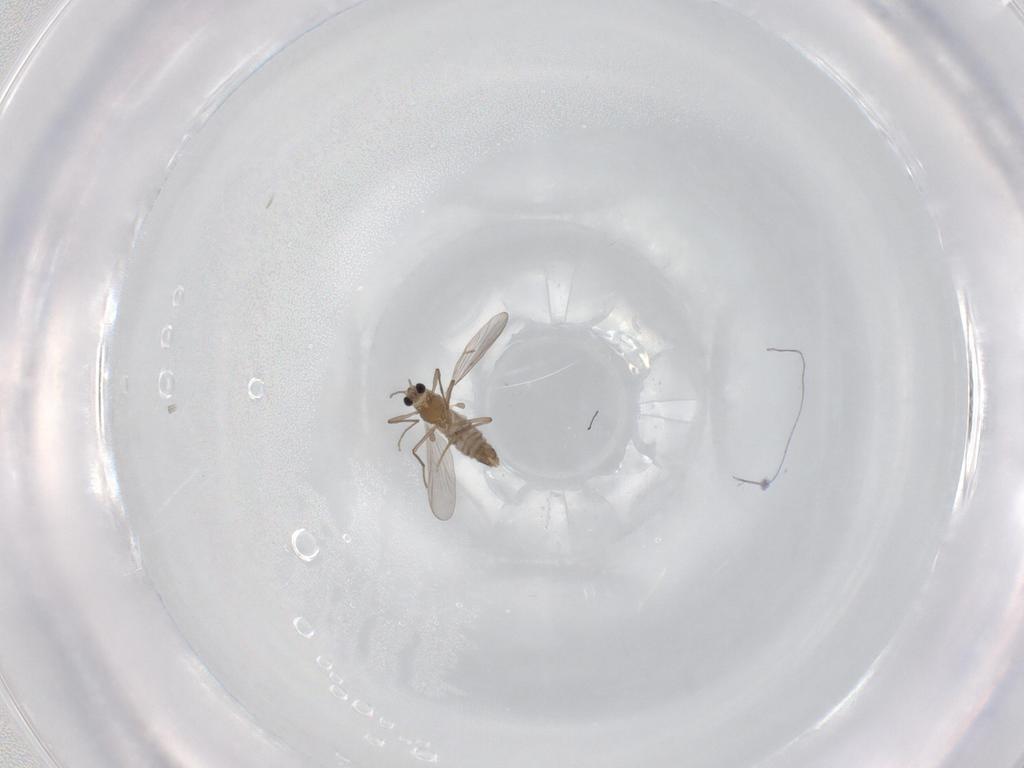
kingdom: Animalia
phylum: Arthropoda
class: Insecta
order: Diptera
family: Chironomidae
